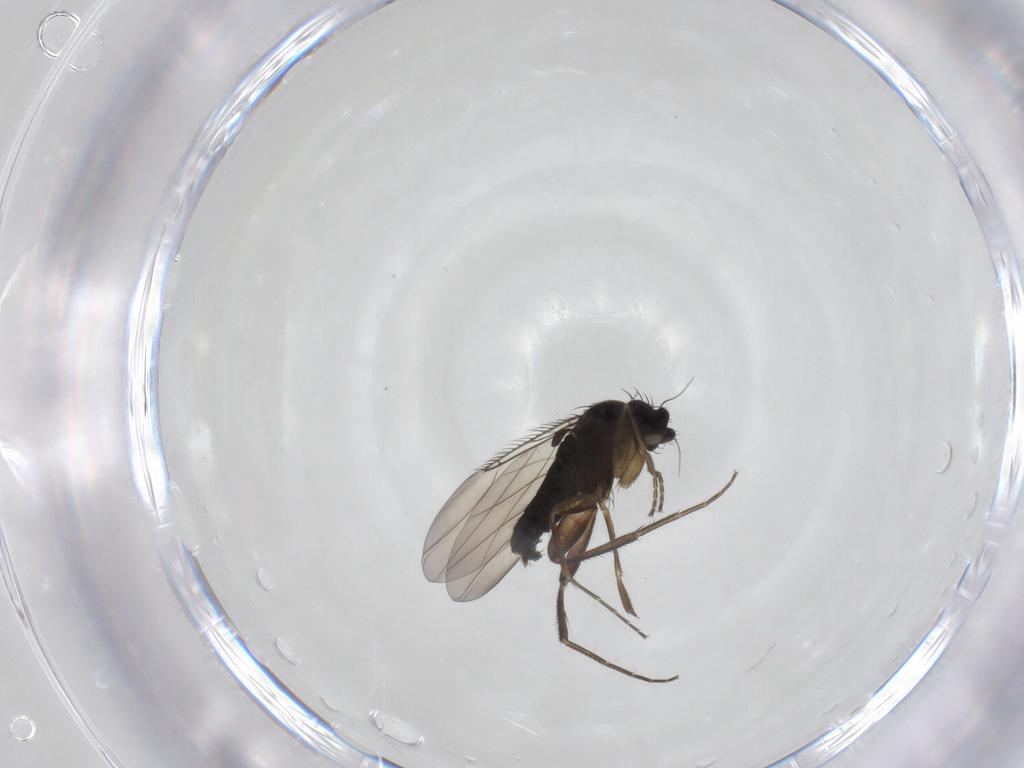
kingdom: Animalia
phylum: Arthropoda
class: Insecta
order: Diptera
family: Phoridae
